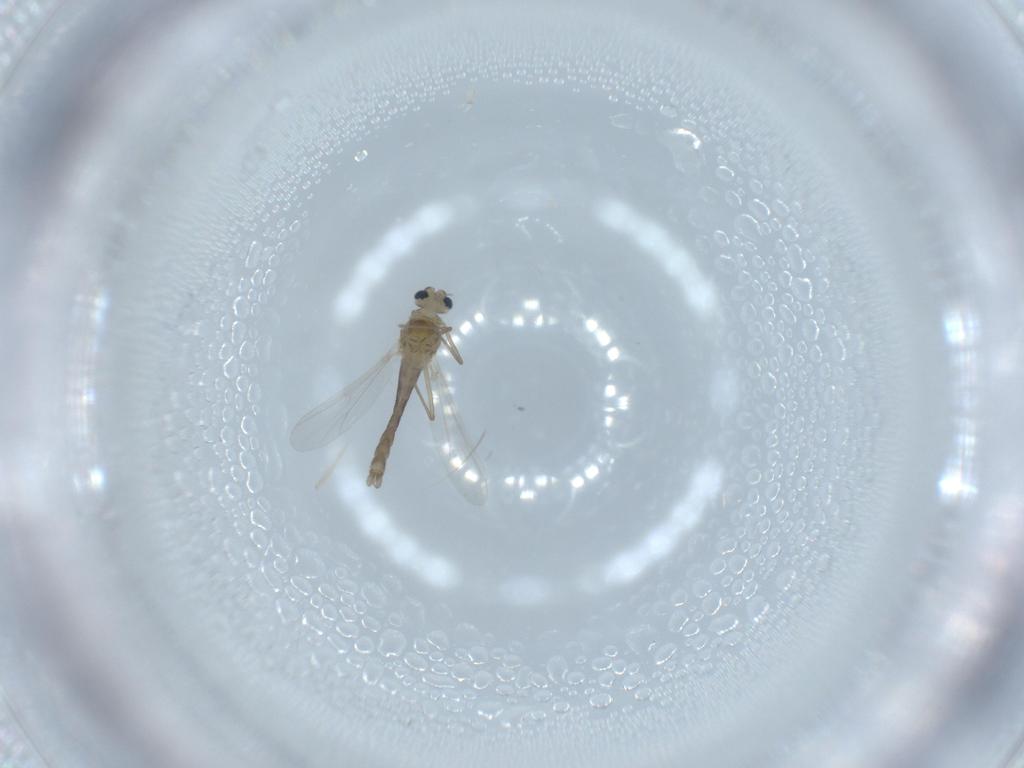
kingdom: Animalia
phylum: Arthropoda
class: Insecta
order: Diptera
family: Chironomidae
